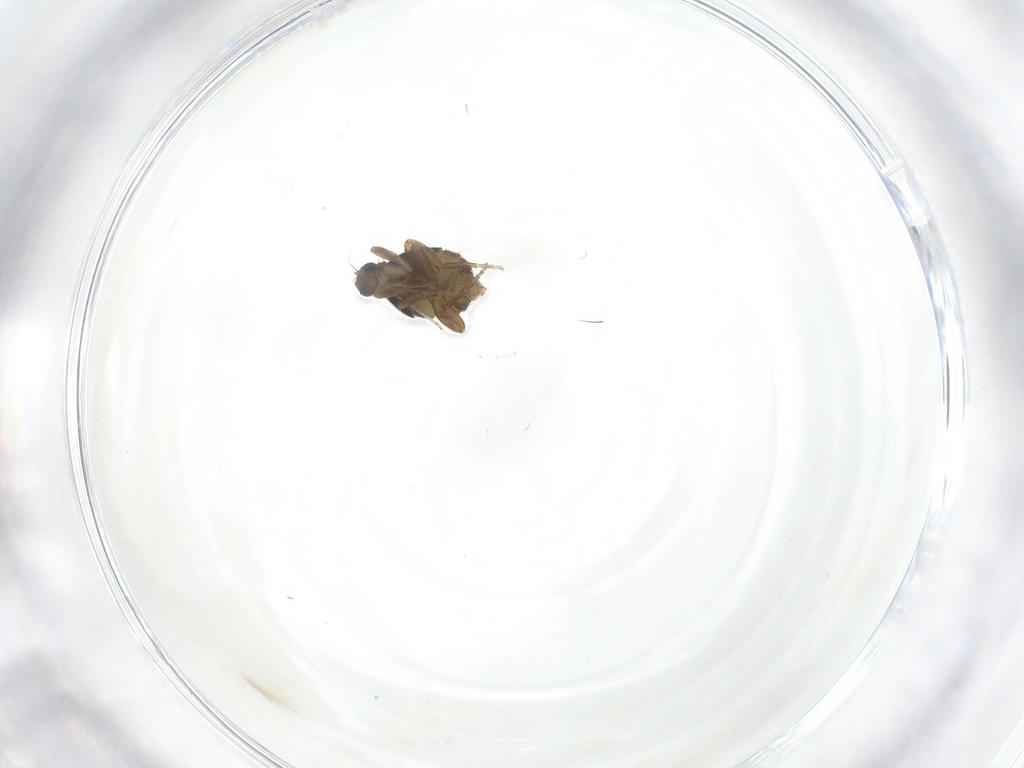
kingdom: Animalia
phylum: Arthropoda
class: Insecta
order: Diptera
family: Phoridae
